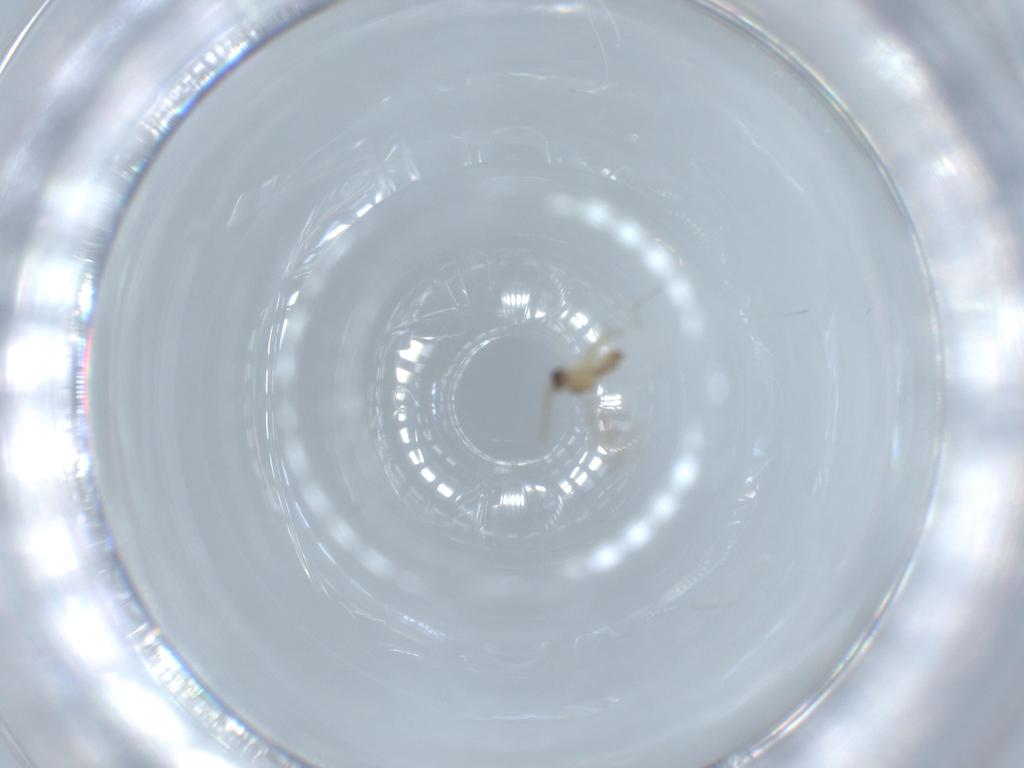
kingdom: Animalia
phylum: Arthropoda
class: Insecta
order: Diptera
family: Cecidomyiidae
